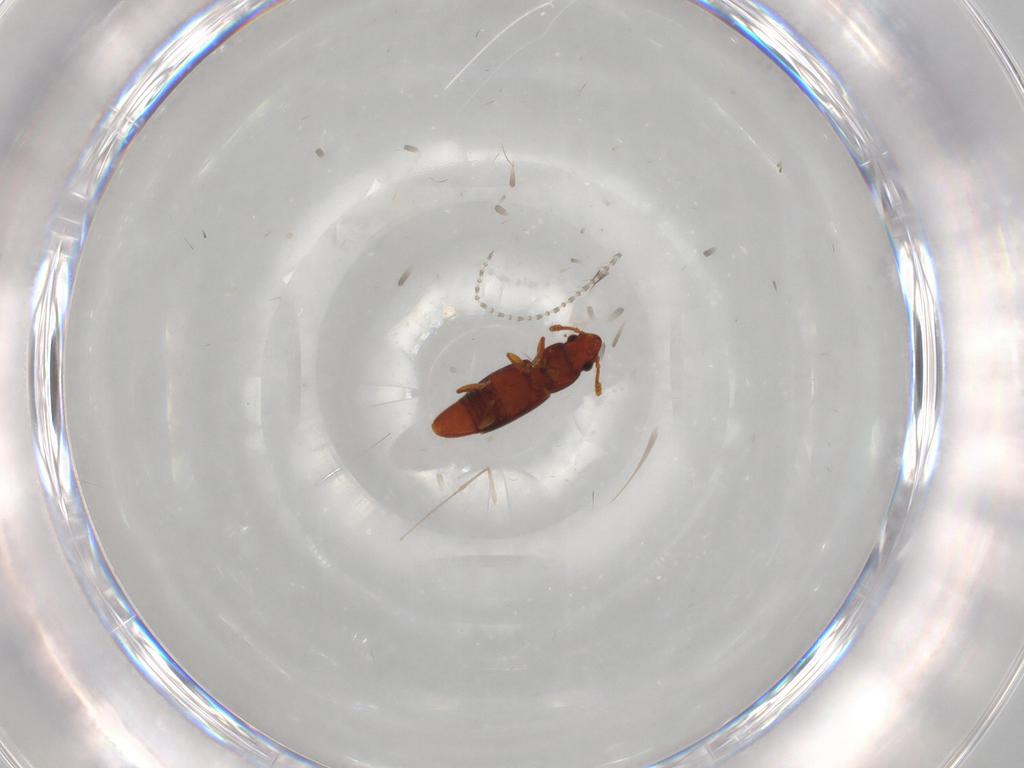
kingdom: Animalia
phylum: Arthropoda
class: Insecta
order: Coleoptera
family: Smicripidae
